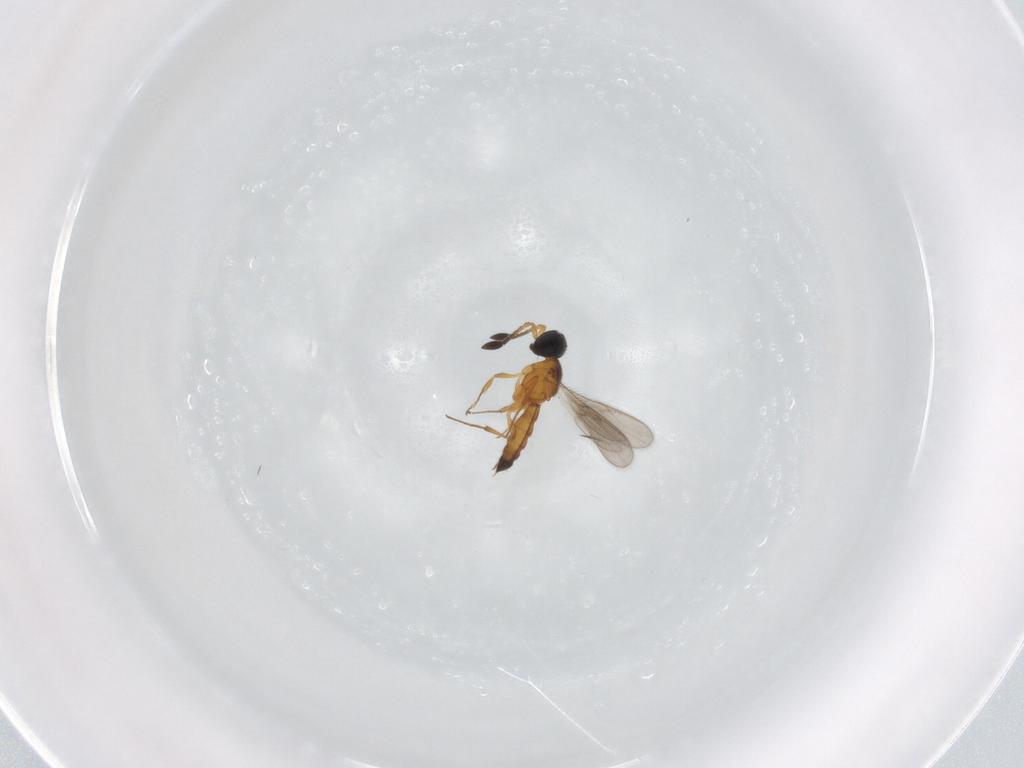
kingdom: Animalia
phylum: Arthropoda
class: Insecta
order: Hymenoptera
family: Scelionidae
